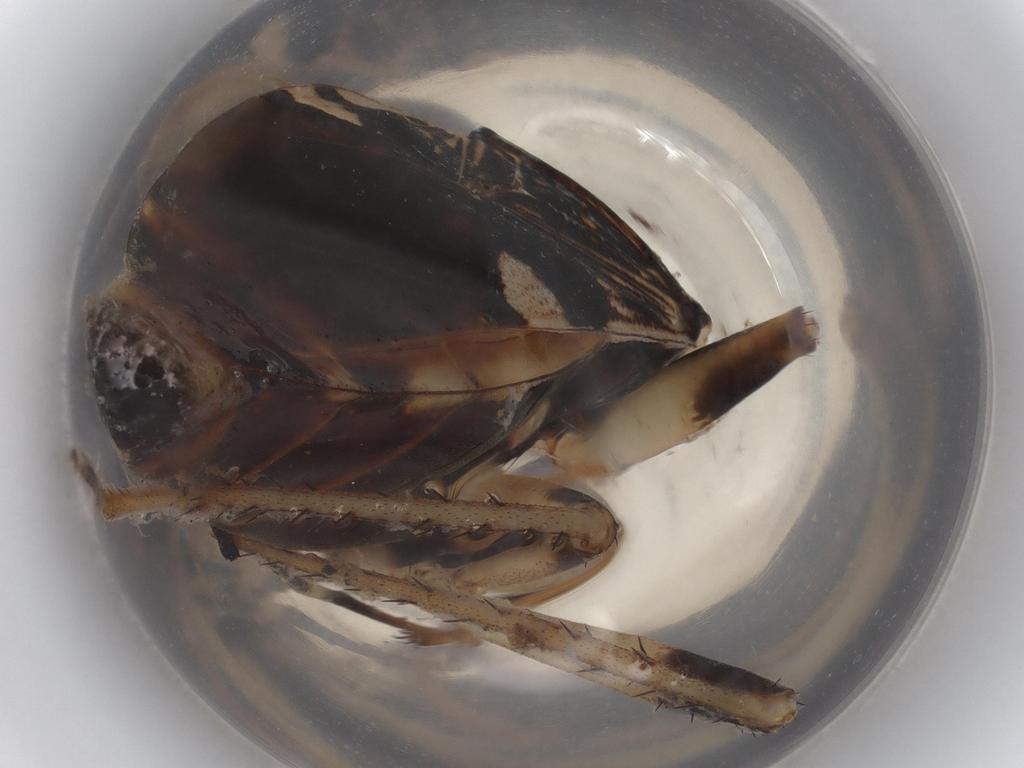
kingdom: Animalia
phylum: Arthropoda
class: Insecta
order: Hemiptera
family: Rhyparochromidae
